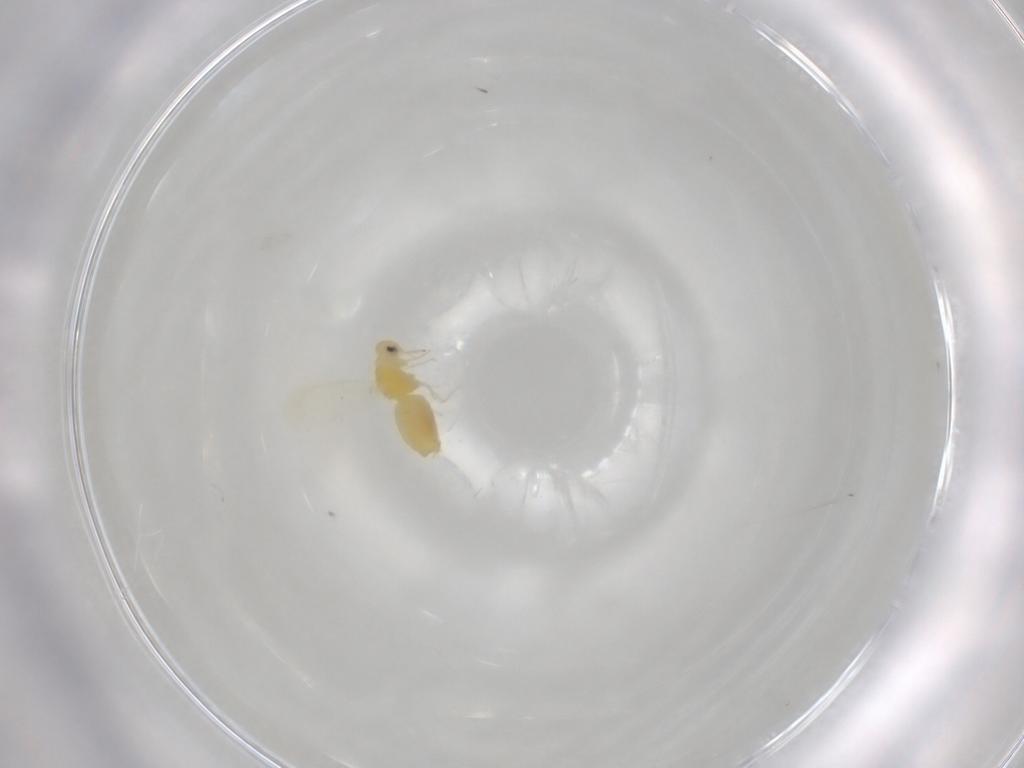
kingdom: Animalia
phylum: Arthropoda
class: Insecta
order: Hemiptera
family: Aleyrodidae
